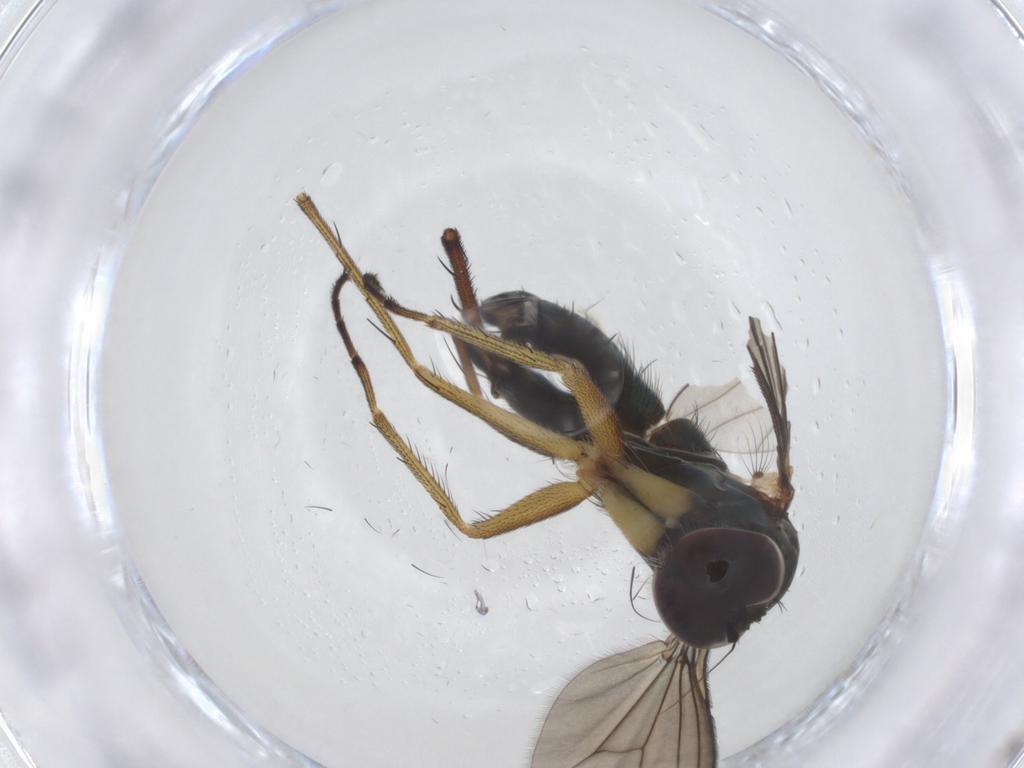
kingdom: Animalia
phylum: Arthropoda
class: Insecta
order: Diptera
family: Dolichopodidae
